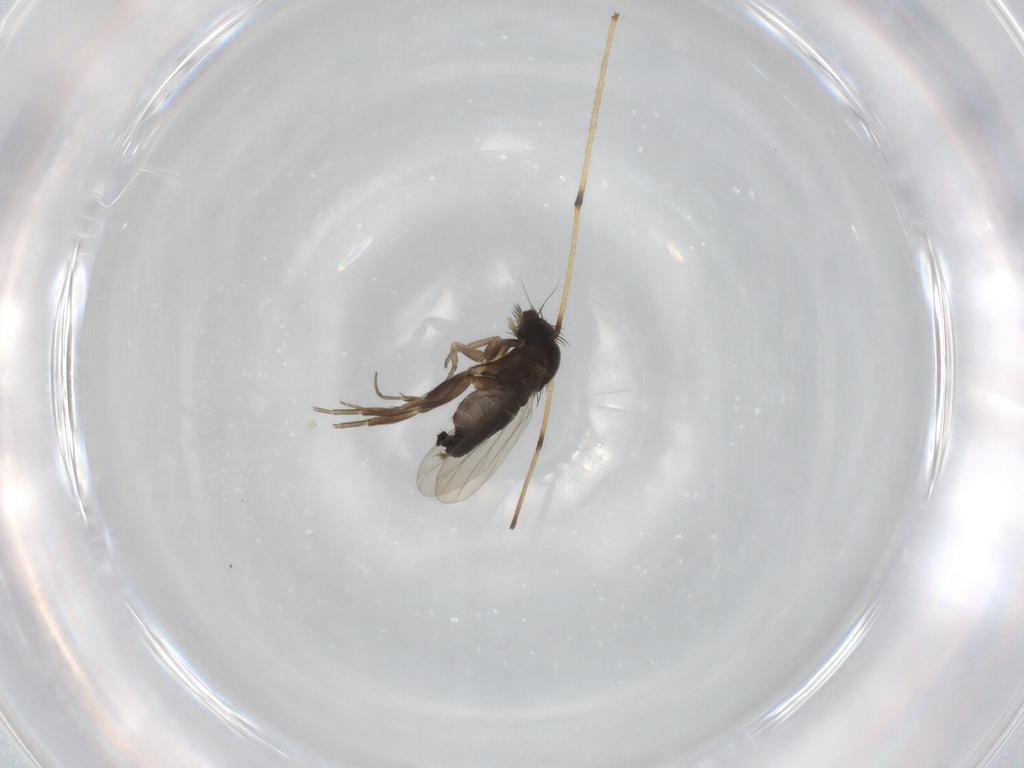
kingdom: Animalia
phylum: Arthropoda
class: Insecta
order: Diptera
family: Phoridae
